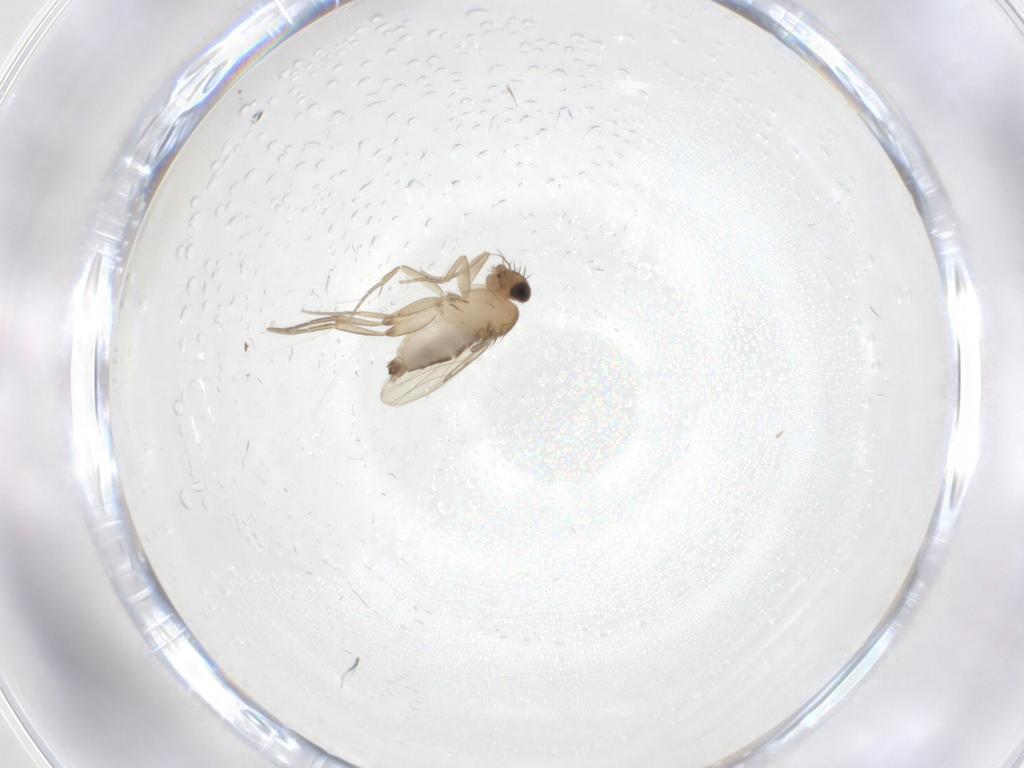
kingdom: Animalia
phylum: Arthropoda
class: Insecta
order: Diptera
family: Phoridae
